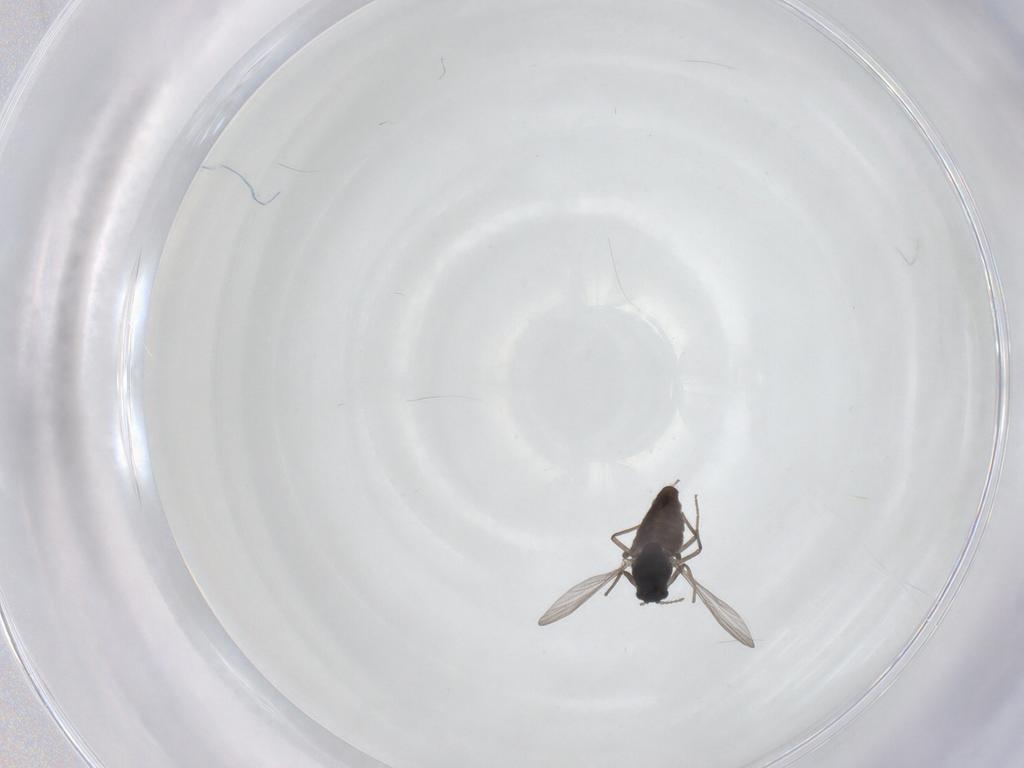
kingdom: Animalia
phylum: Arthropoda
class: Insecta
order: Diptera
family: Chironomidae
